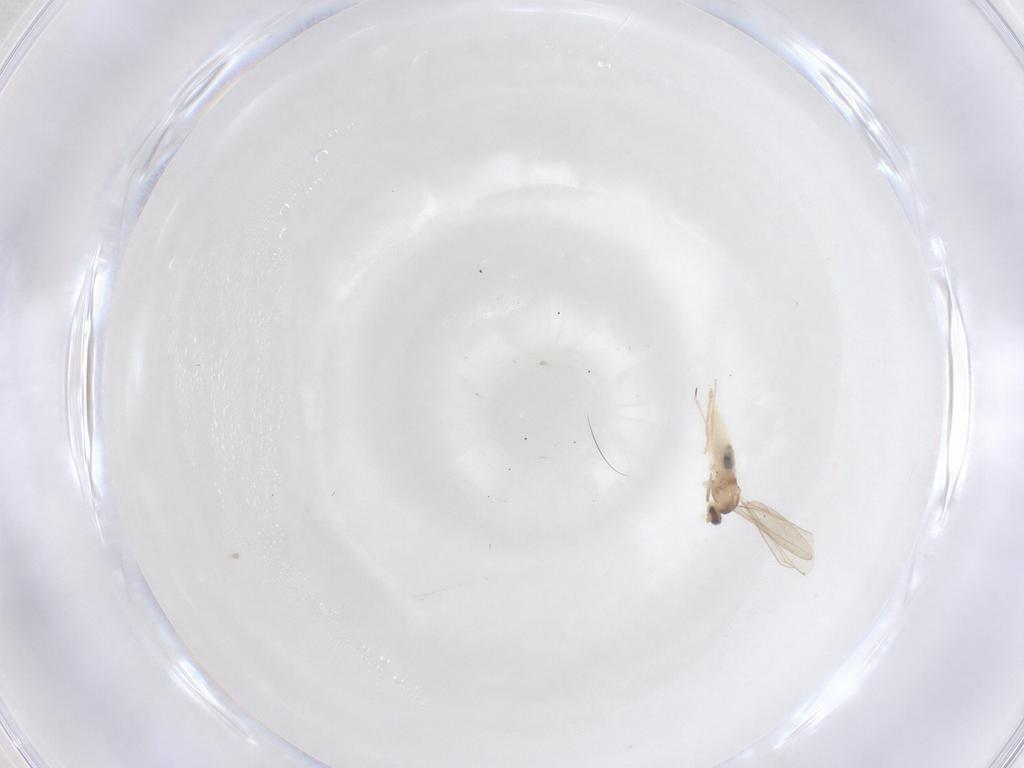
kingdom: Animalia
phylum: Arthropoda
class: Insecta
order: Diptera
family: Cecidomyiidae
